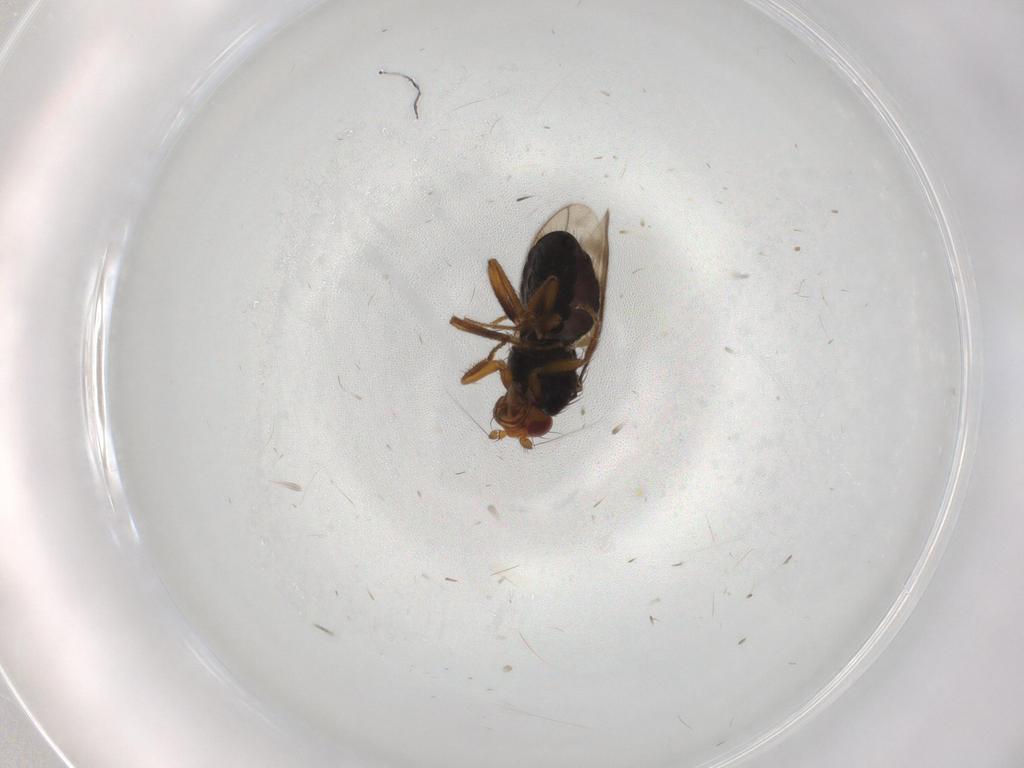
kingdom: Animalia
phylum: Arthropoda
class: Insecta
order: Diptera
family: Sphaeroceridae
